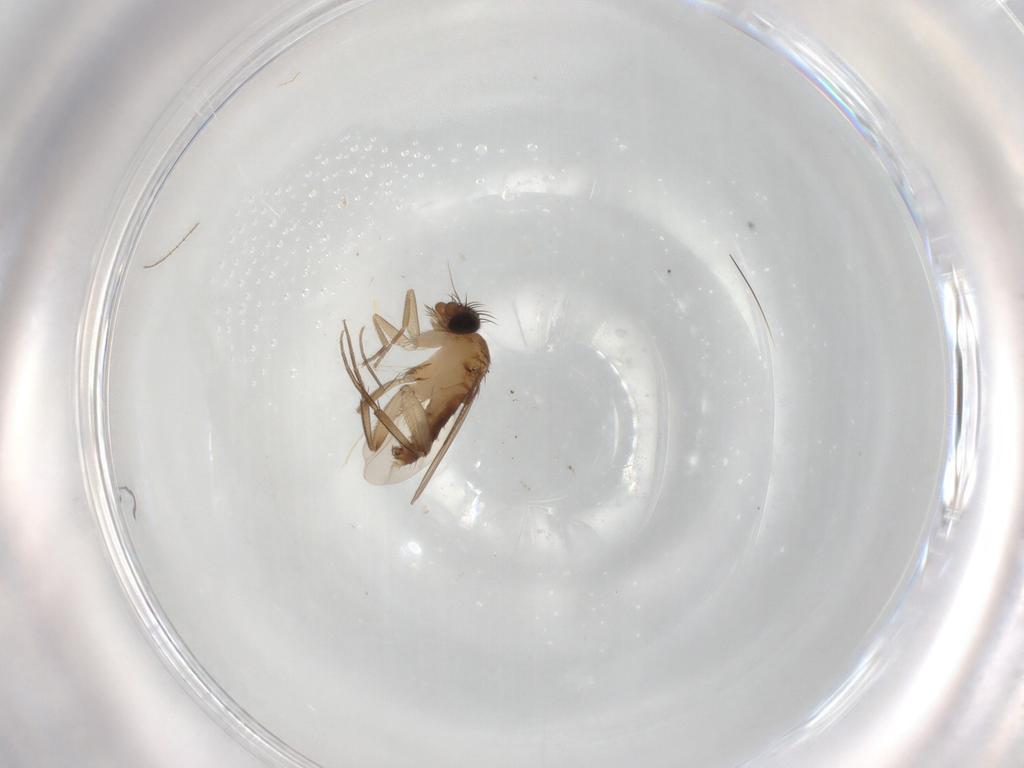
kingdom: Animalia
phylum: Arthropoda
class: Insecta
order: Diptera
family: Phoridae
